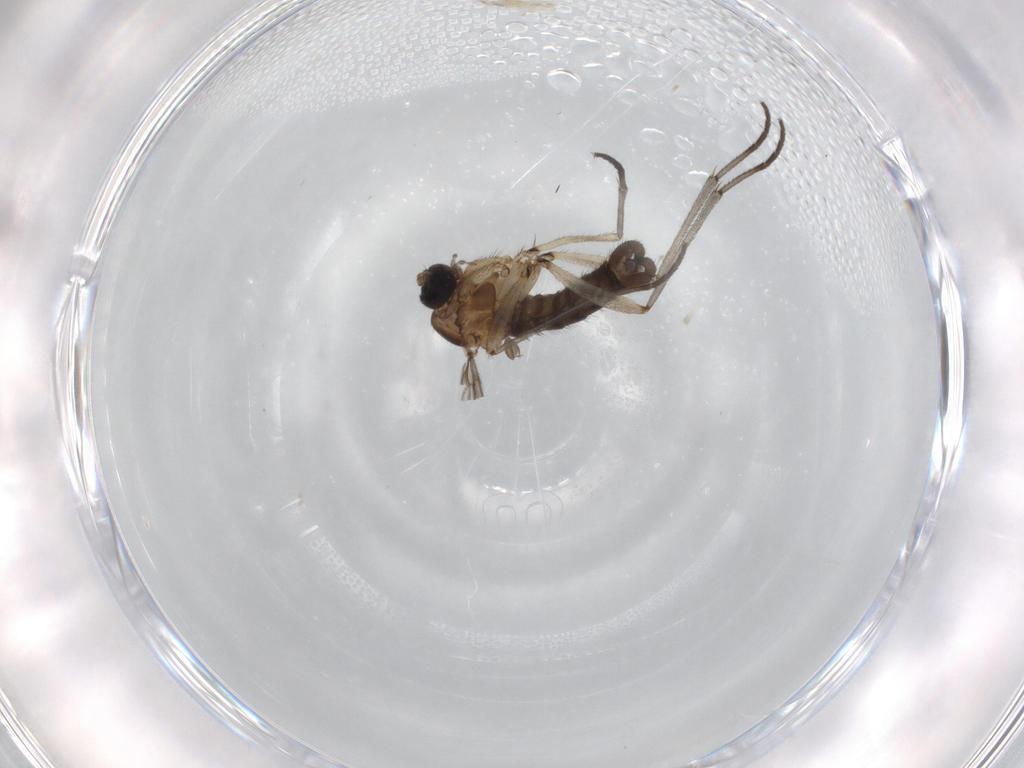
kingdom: Animalia
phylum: Arthropoda
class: Insecta
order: Diptera
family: Sciaridae
